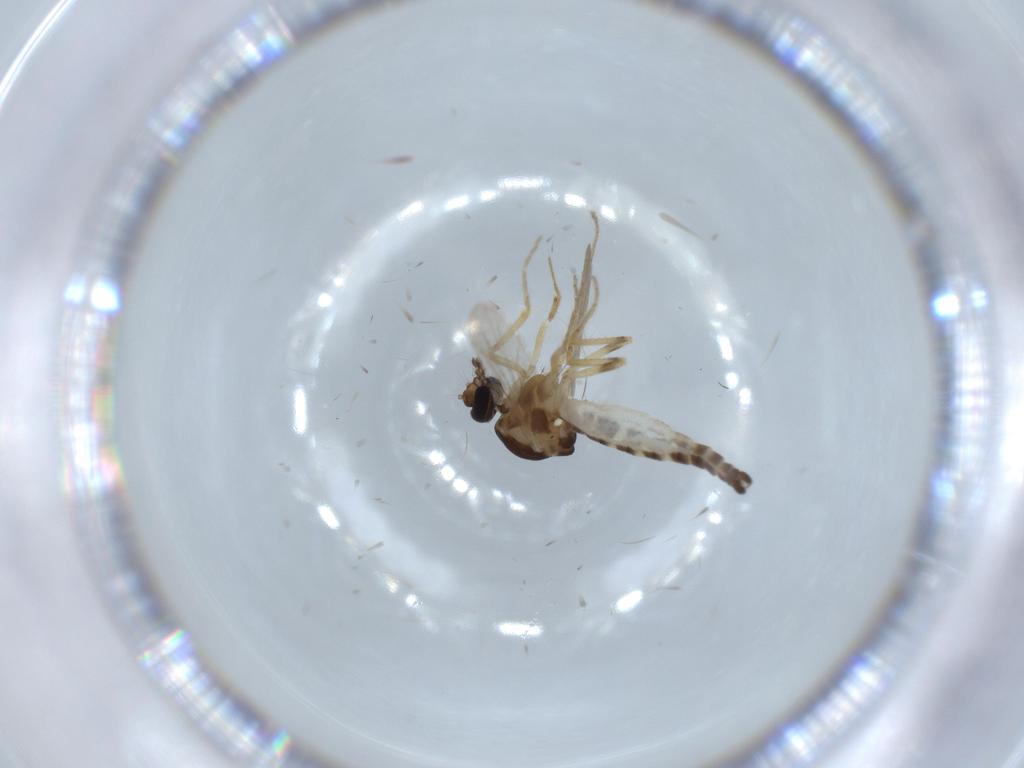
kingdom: Animalia
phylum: Arthropoda
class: Insecta
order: Diptera
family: Ceratopogonidae
